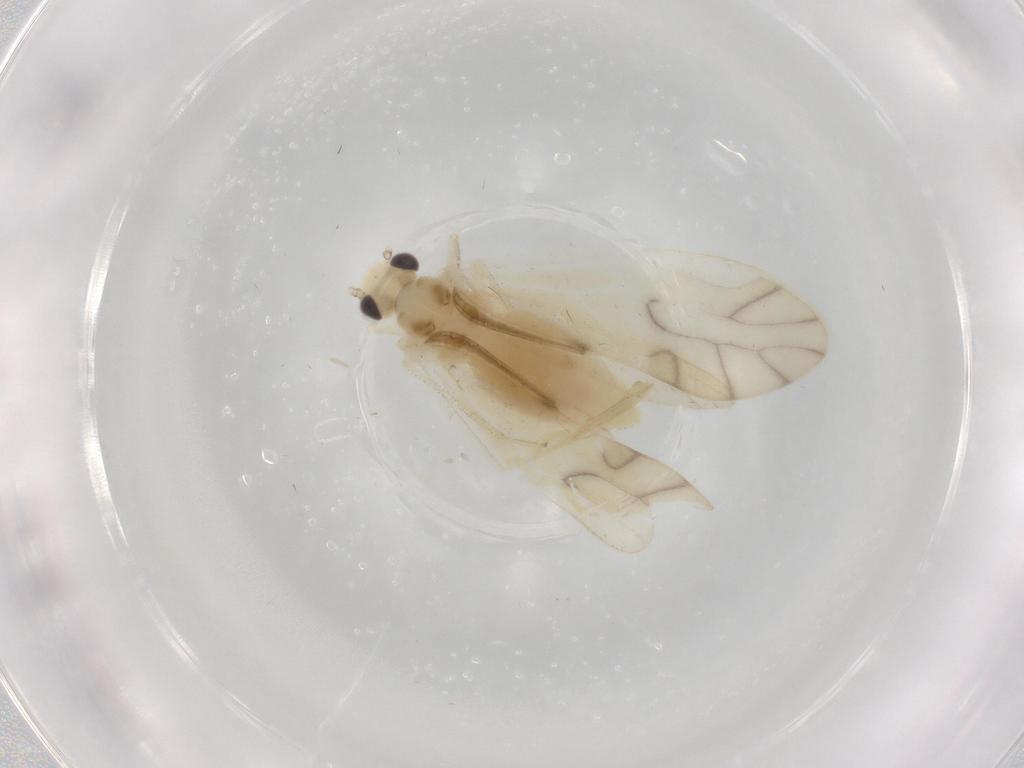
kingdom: Animalia
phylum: Arthropoda
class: Insecta
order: Psocodea
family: Caeciliusidae
